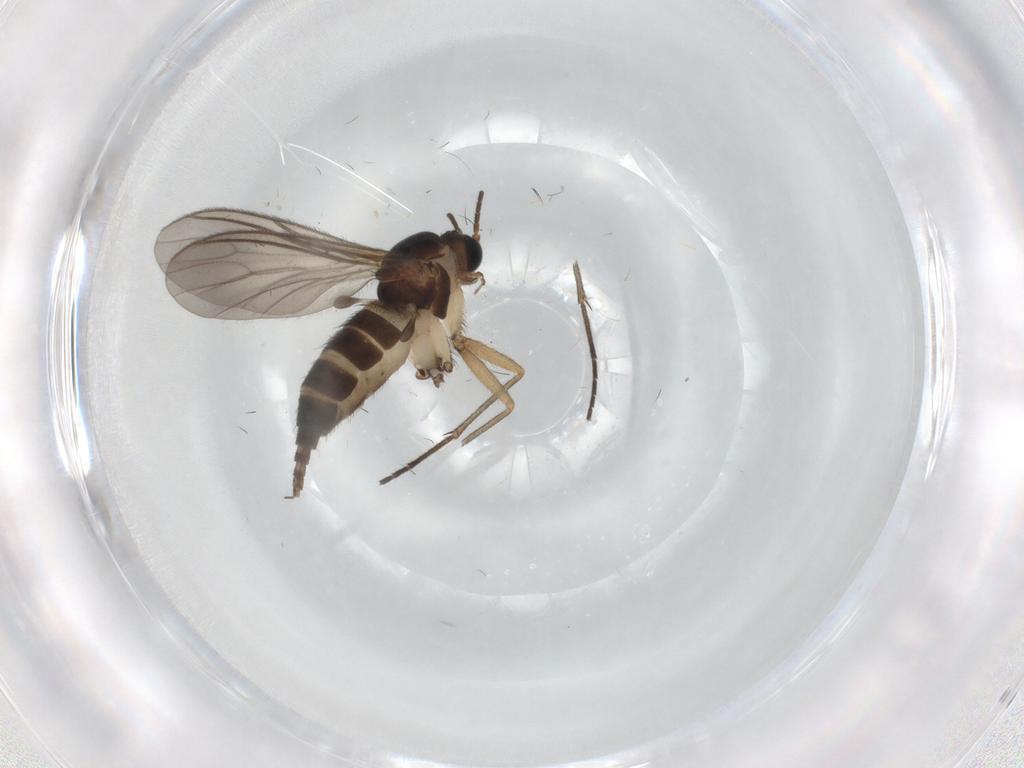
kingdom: Animalia
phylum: Arthropoda
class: Insecta
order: Diptera
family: Sciaridae
